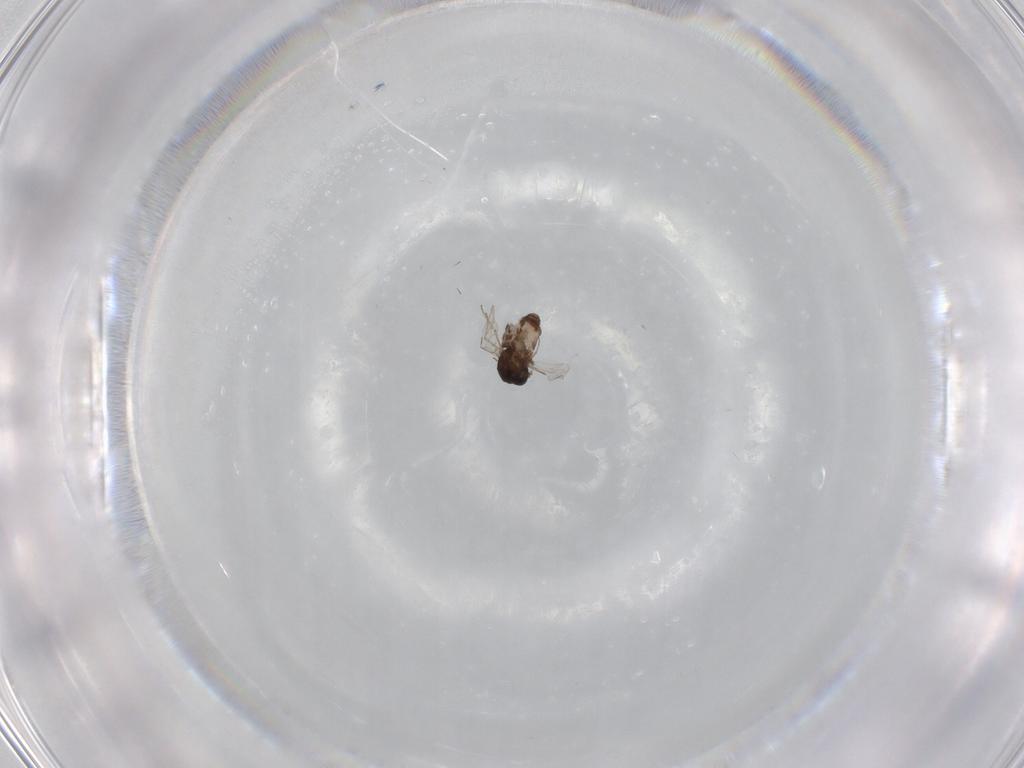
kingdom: Animalia
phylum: Arthropoda
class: Insecta
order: Diptera
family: Ceratopogonidae
